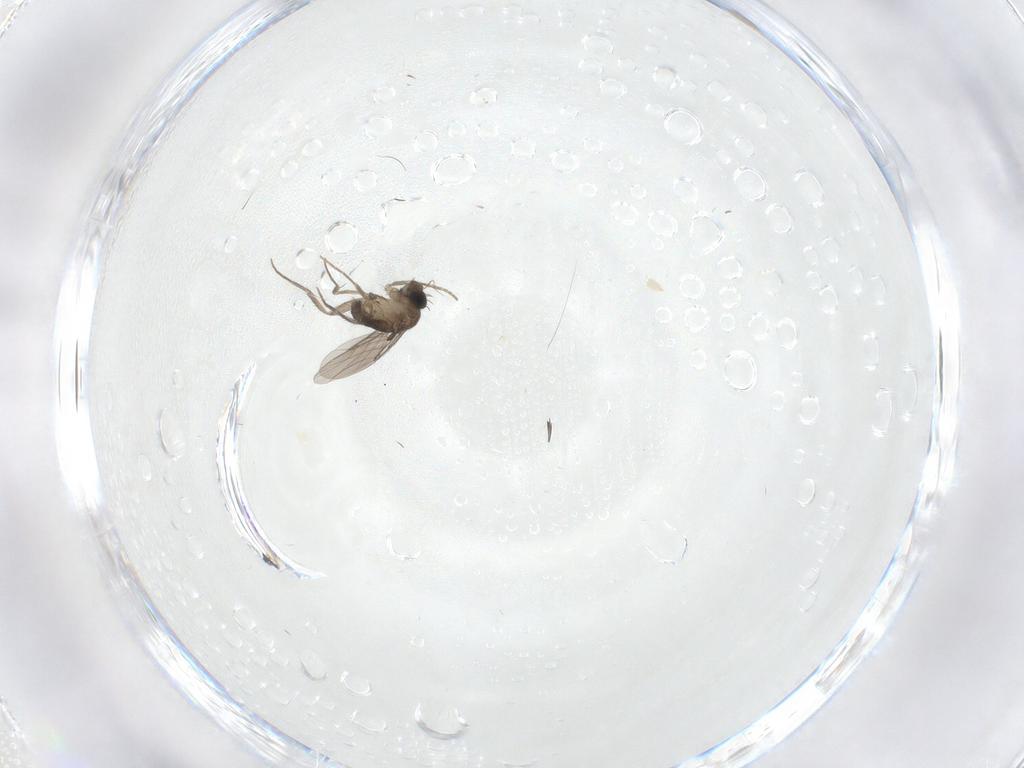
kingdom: Animalia
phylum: Arthropoda
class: Insecta
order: Diptera
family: Phoridae
